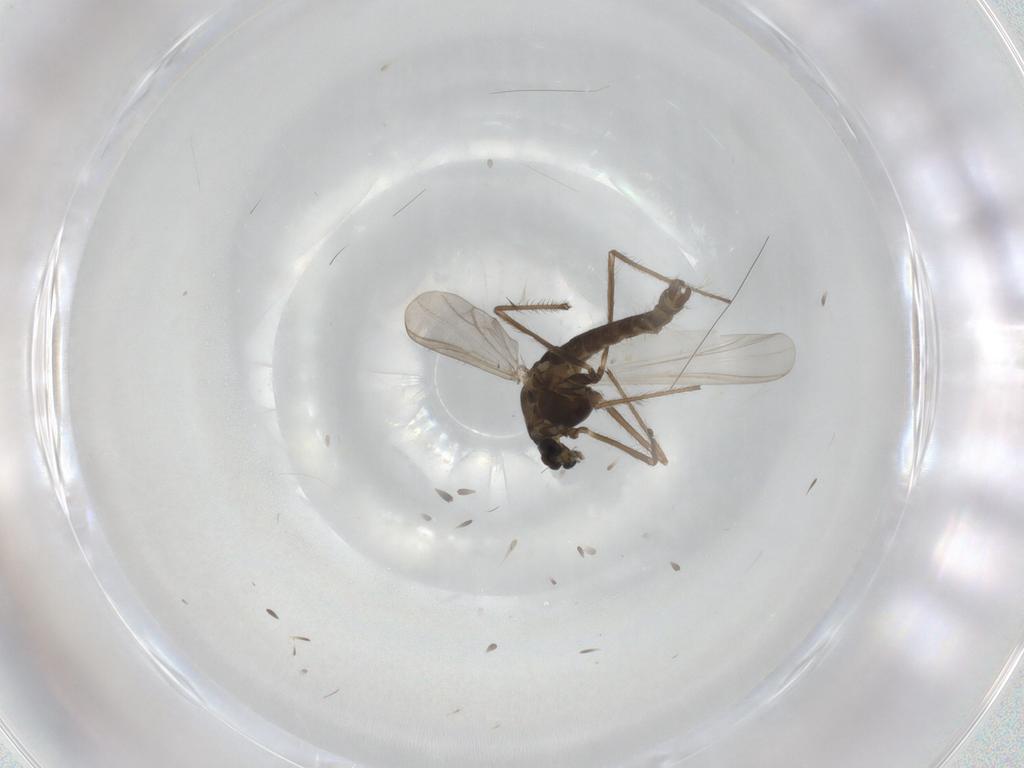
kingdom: Animalia
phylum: Arthropoda
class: Insecta
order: Diptera
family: Chironomidae
